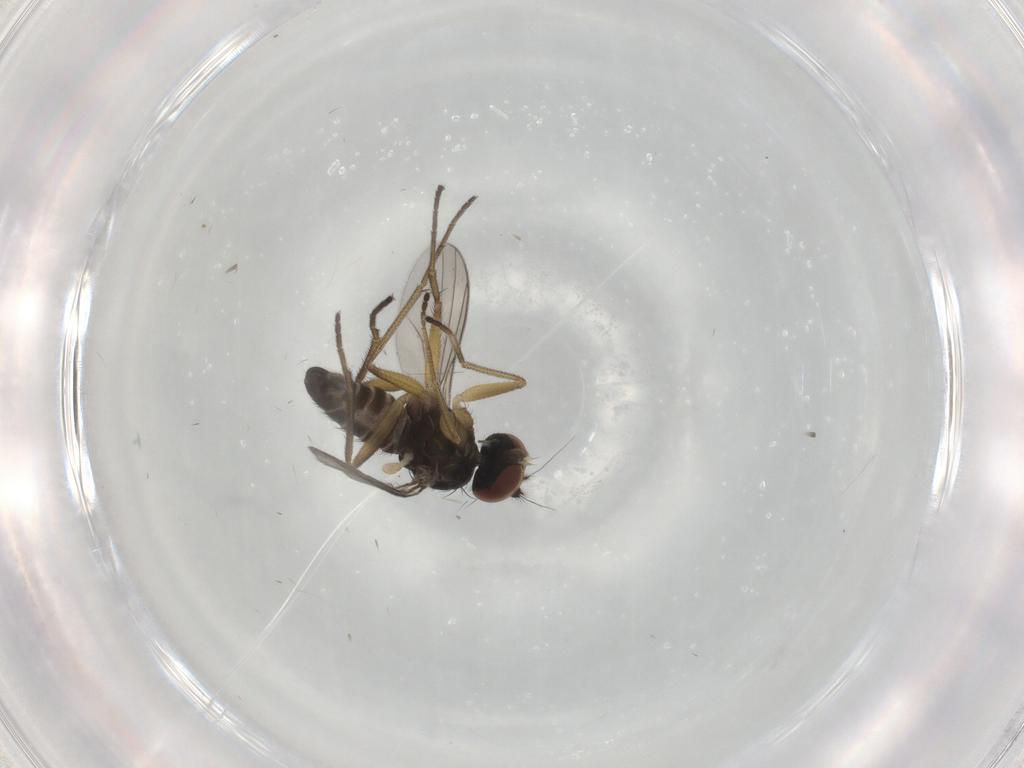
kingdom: Animalia
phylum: Arthropoda
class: Insecta
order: Diptera
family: Dolichopodidae
